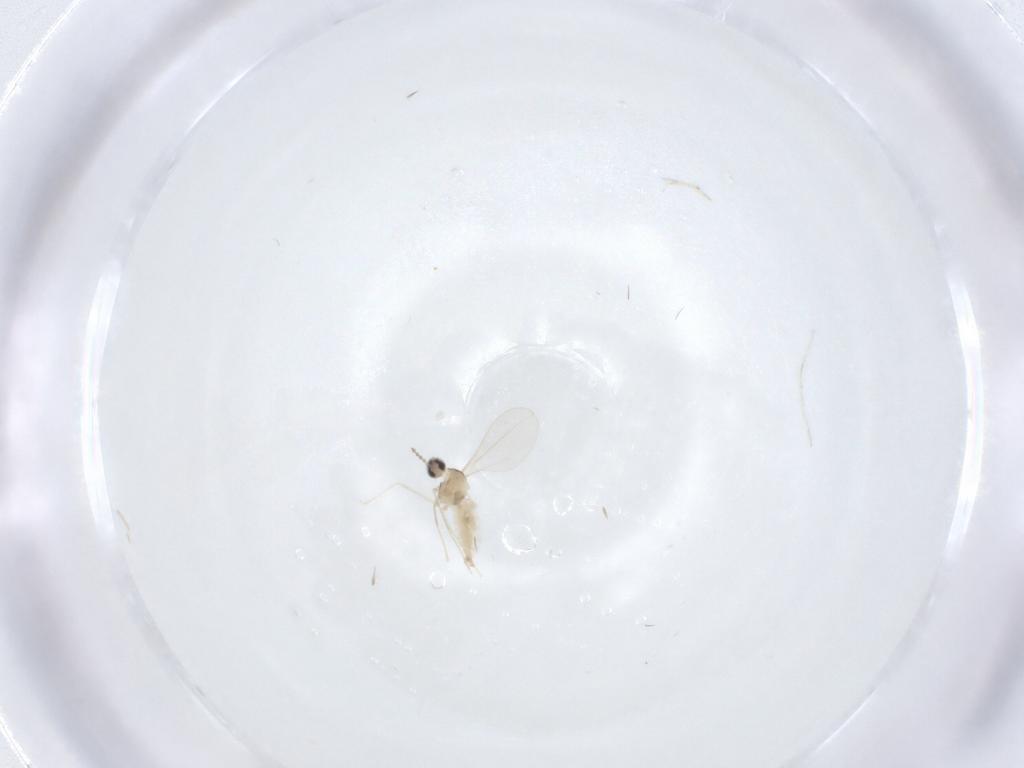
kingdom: Animalia
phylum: Arthropoda
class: Insecta
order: Diptera
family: Cecidomyiidae
